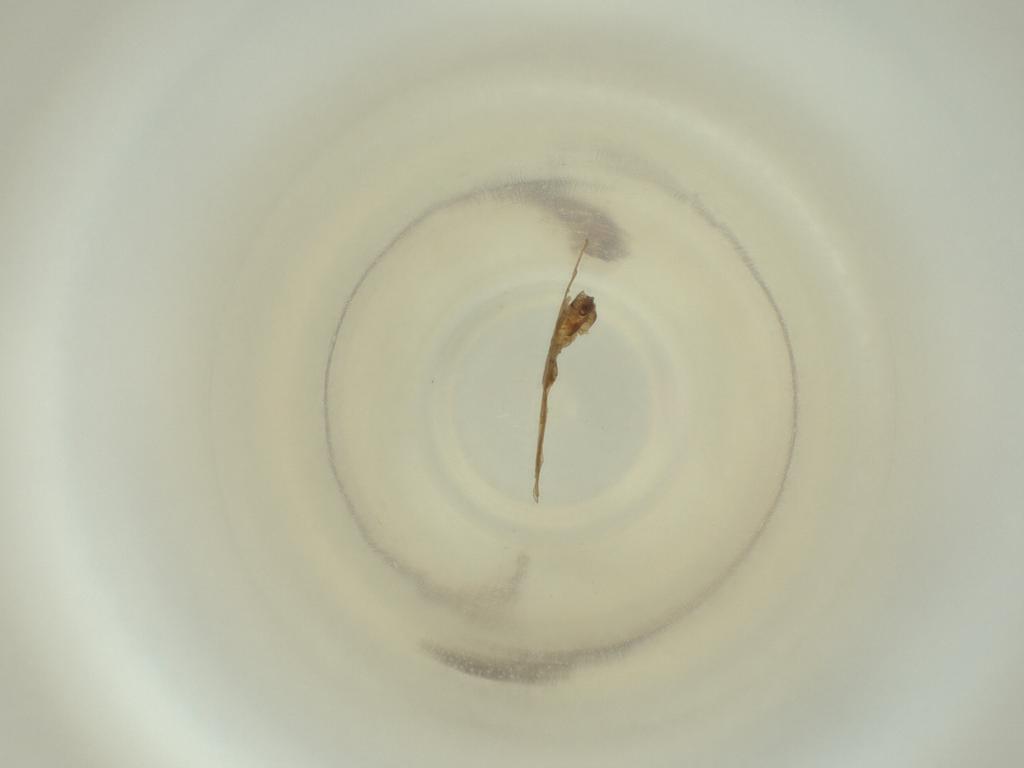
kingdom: Animalia
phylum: Arthropoda
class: Insecta
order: Diptera
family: Cecidomyiidae
